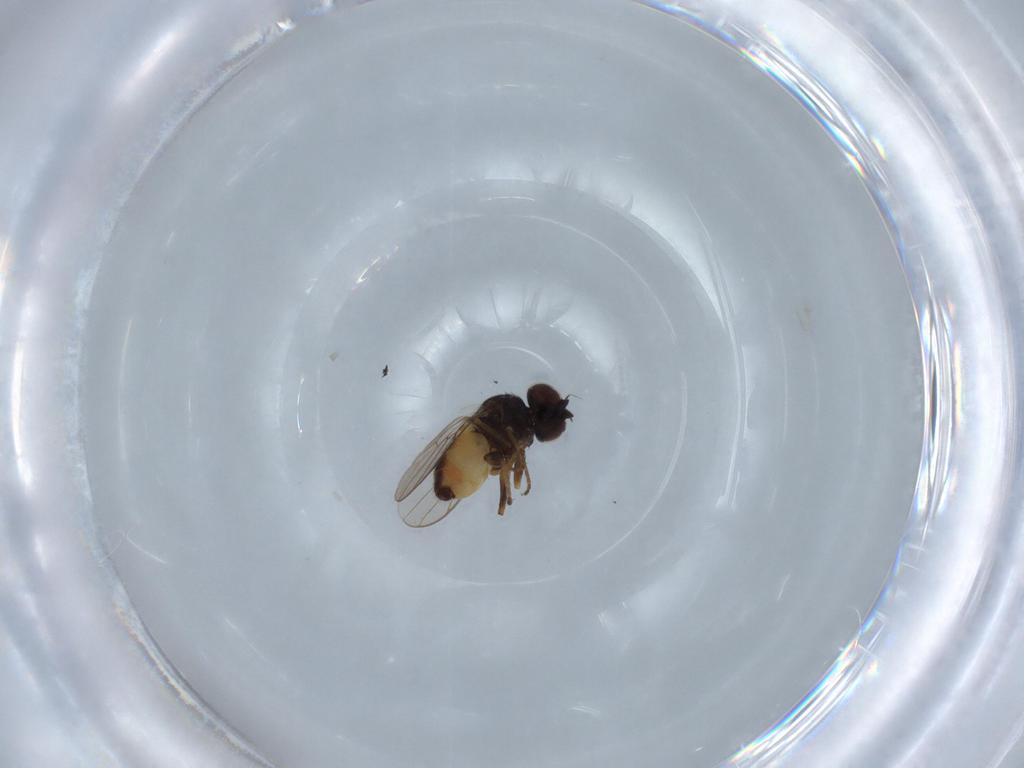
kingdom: Animalia
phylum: Arthropoda
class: Insecta
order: Diptera
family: Chloropidae
